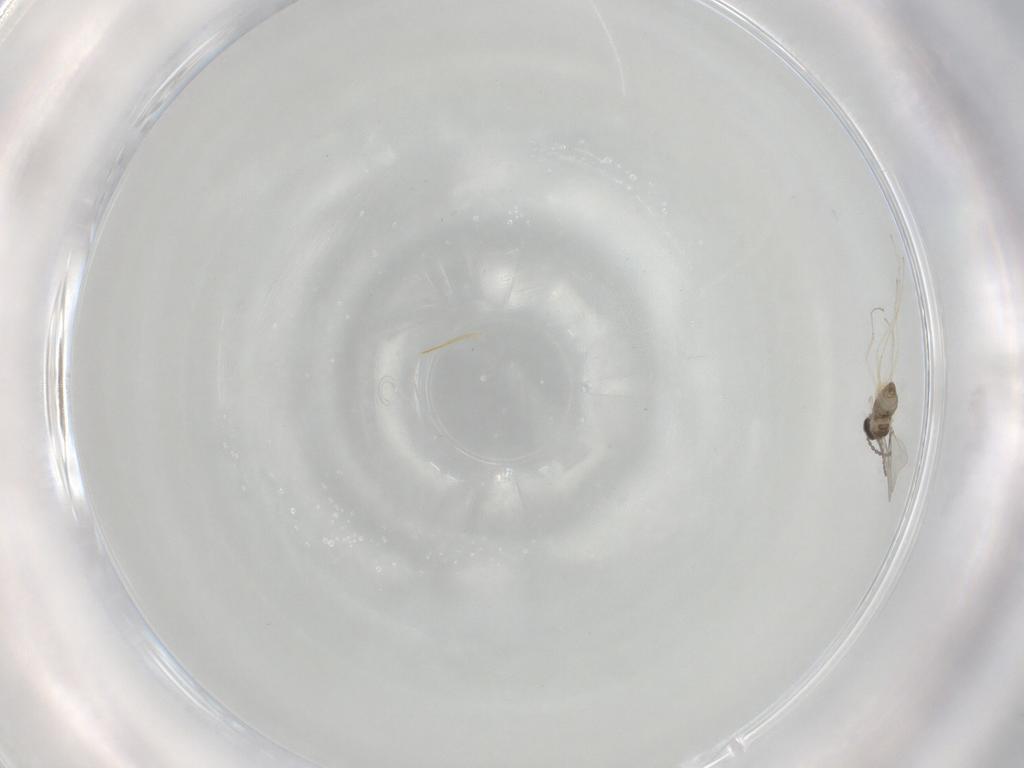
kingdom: Animalia
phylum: Arthropoda
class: Insecta
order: Diptera
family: Cecidomyiidae
